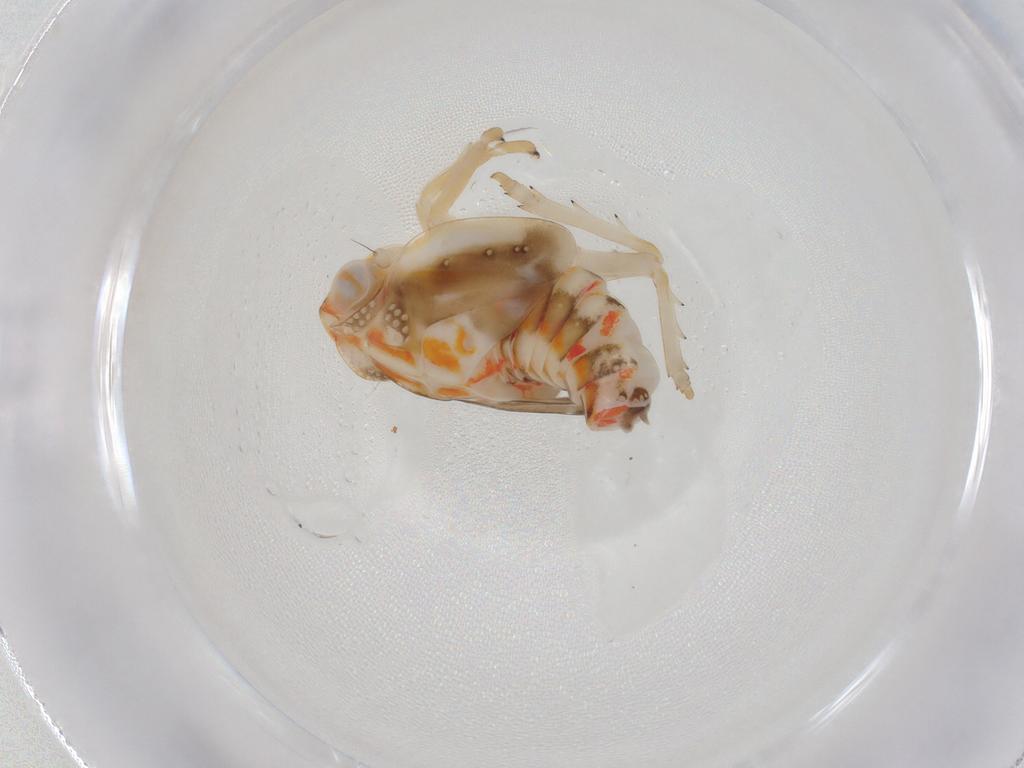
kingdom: Animalia
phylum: Arthropoda
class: Insecta
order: Hemiptera
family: Nogodinidae
